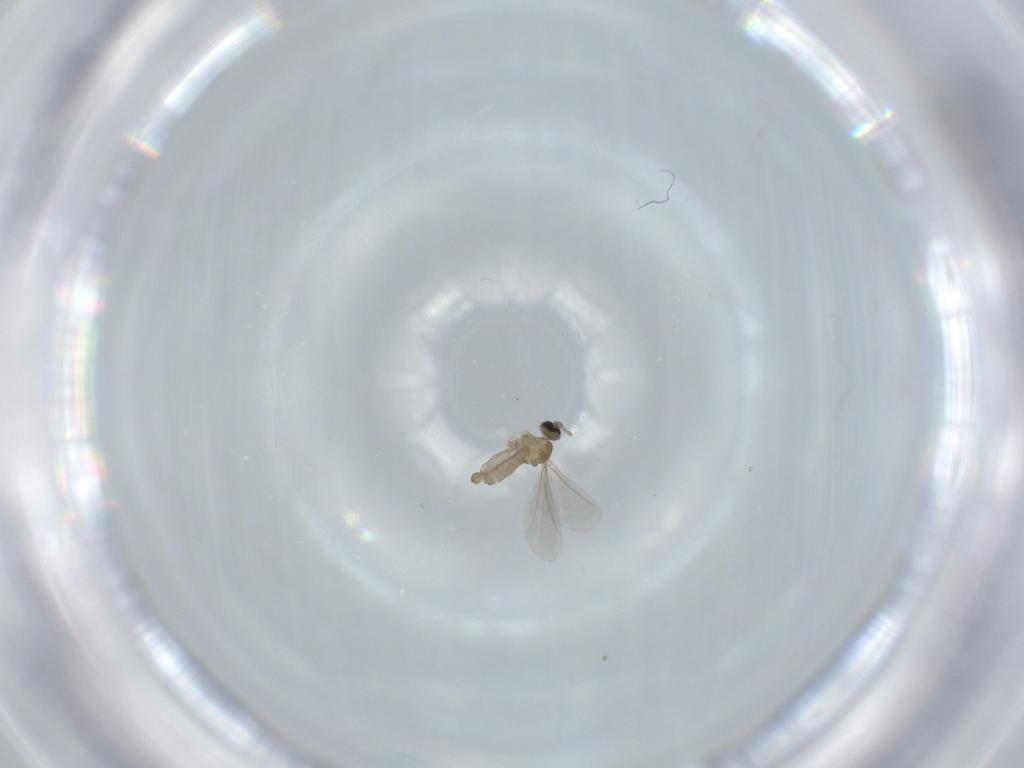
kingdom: Animalia
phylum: Arthropoda
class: Insecta
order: Diptera
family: Cecidomyiidae
